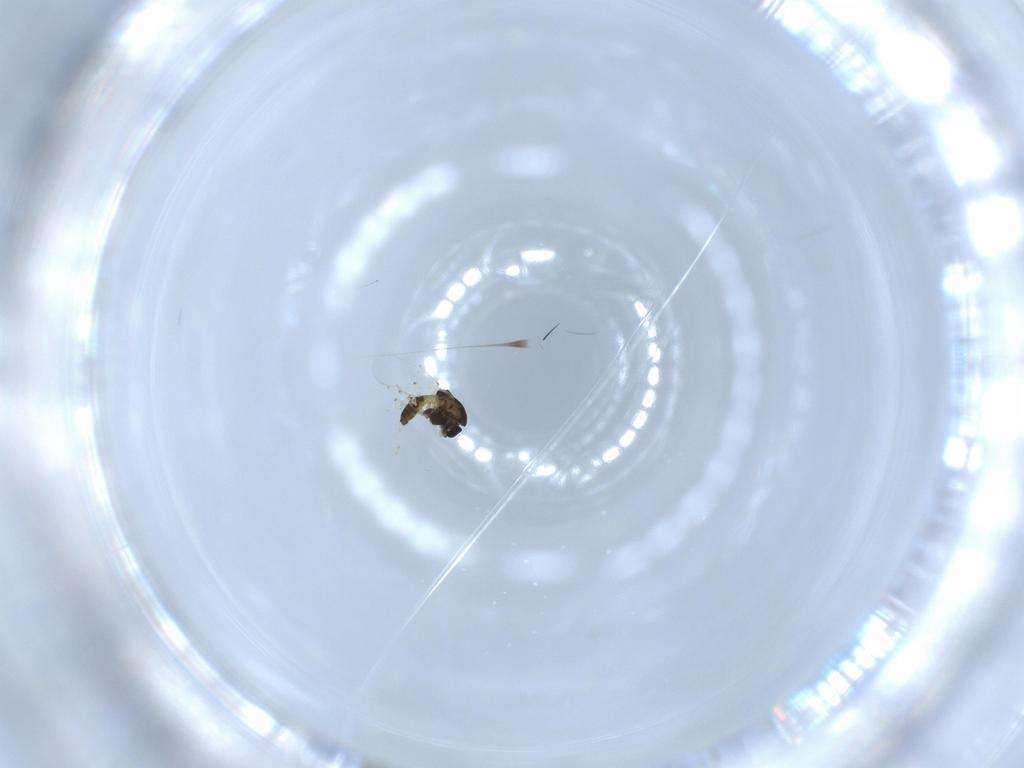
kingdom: Animalia
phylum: Arthropoda
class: Insecta
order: Diptera
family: Chironomidae
